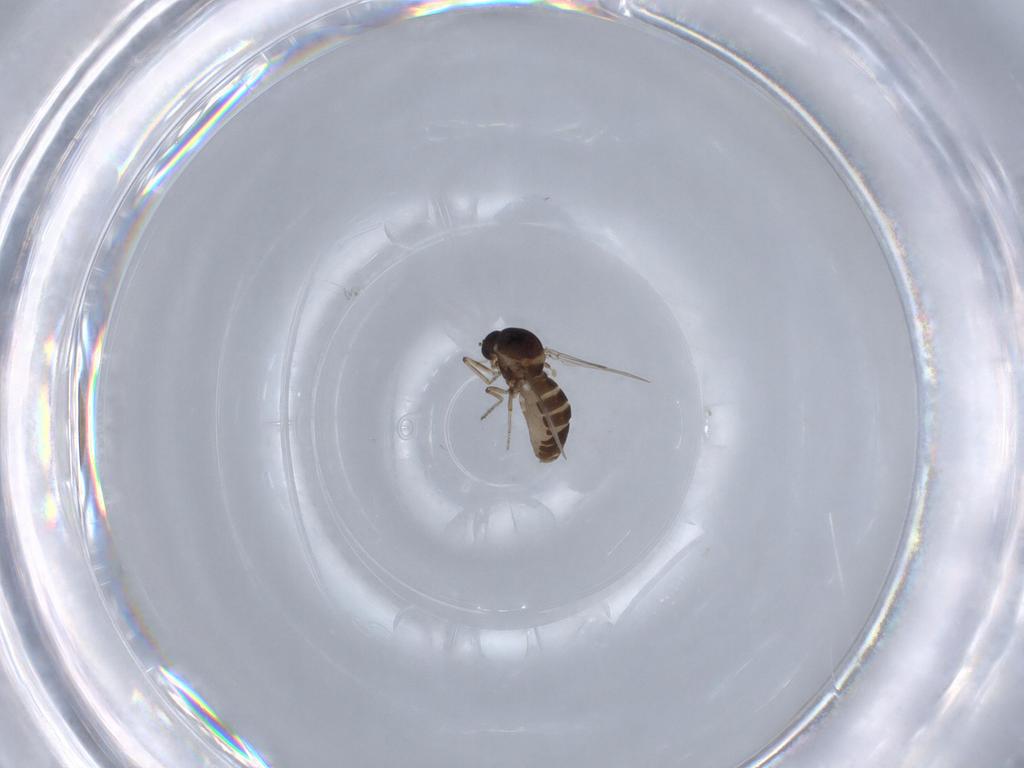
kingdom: Animalia
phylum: Arthropoda
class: Insecta
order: Diptera
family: Ceratopogonidae
